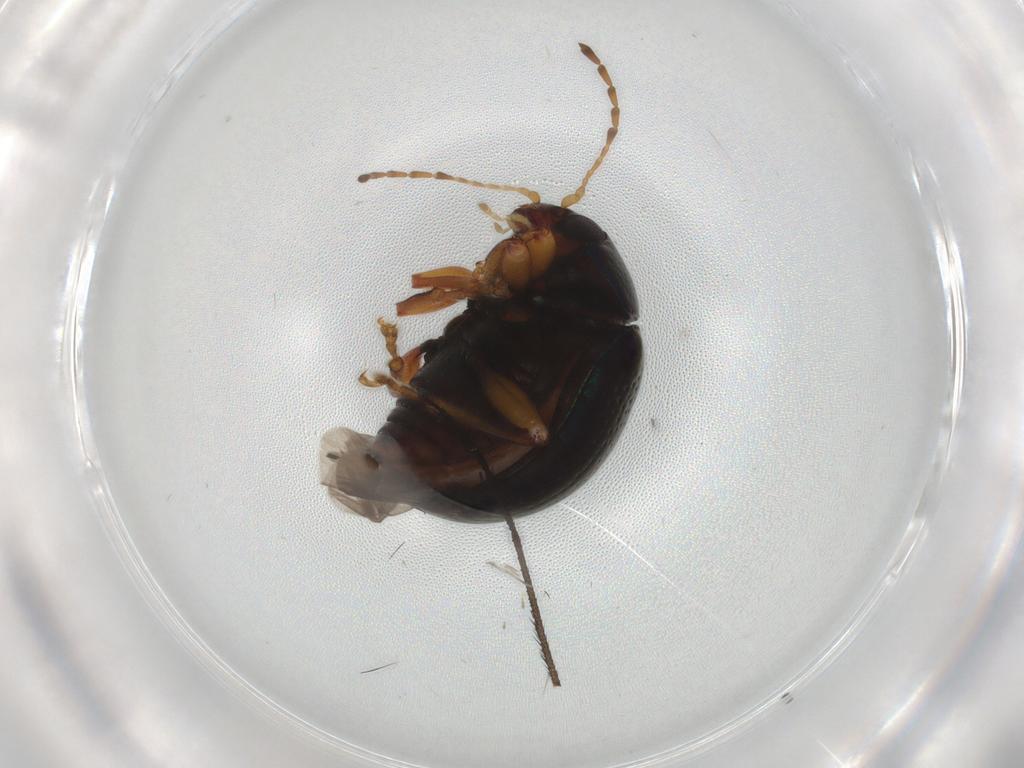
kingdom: Animalia
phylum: Arthropoda
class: Insecta
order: Coleoptera
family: Chrysomelidae
